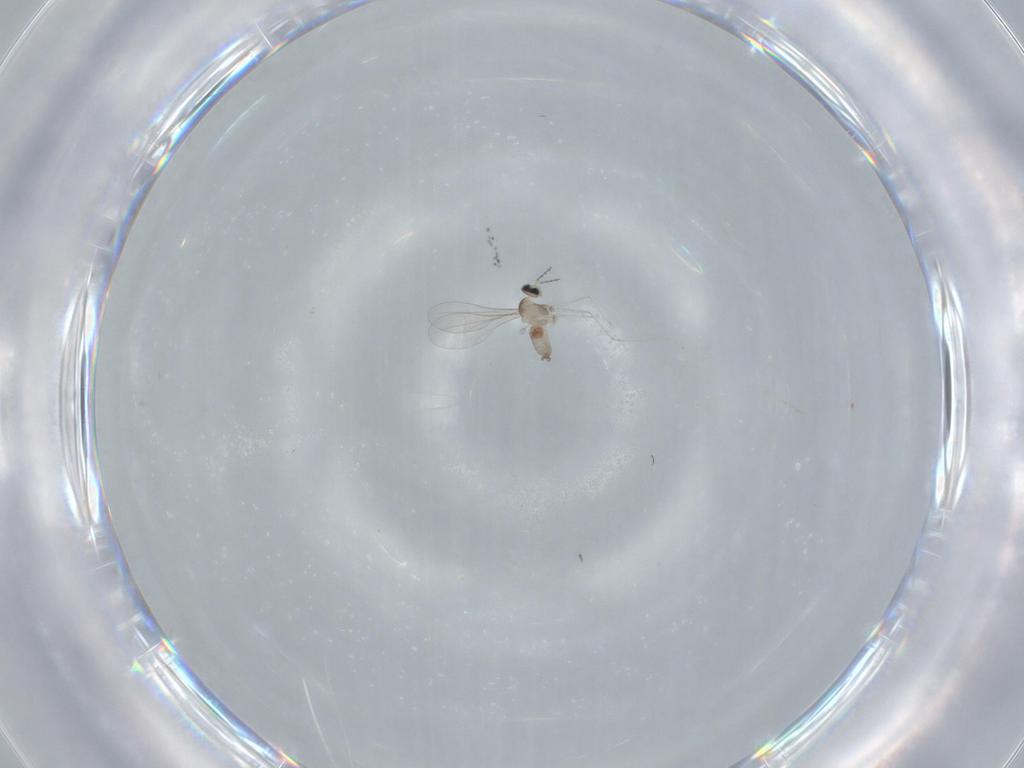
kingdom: Animalia
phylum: Arthropoda
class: Insecta
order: Diptera
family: Cecidomyiidae
